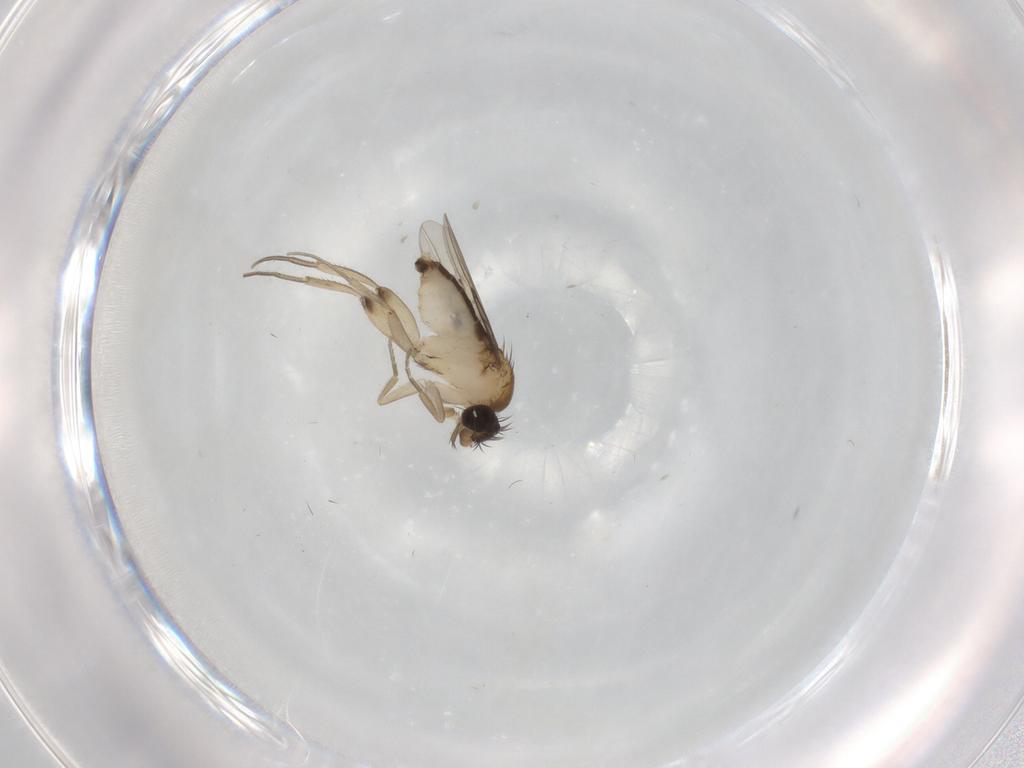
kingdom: Animalia
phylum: Arthropoda
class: Insecta
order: Diptera
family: Phoridae
